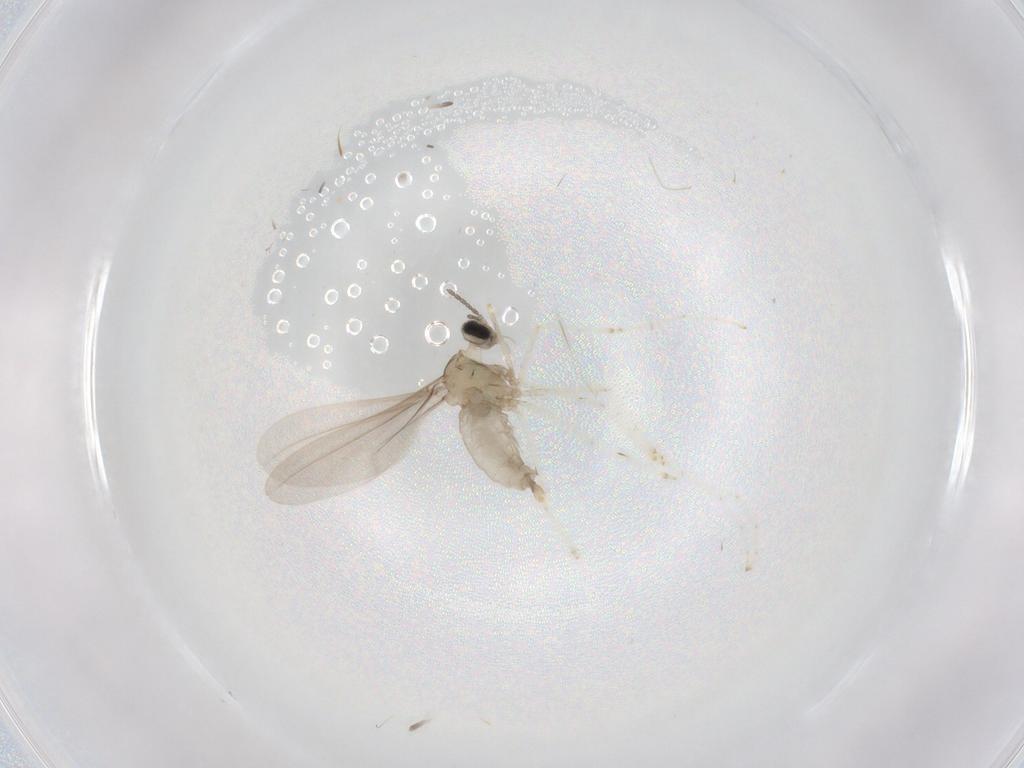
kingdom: Animalia
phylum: Arthropoda
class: Insecta
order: Diptera
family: Cecidomyiidae
